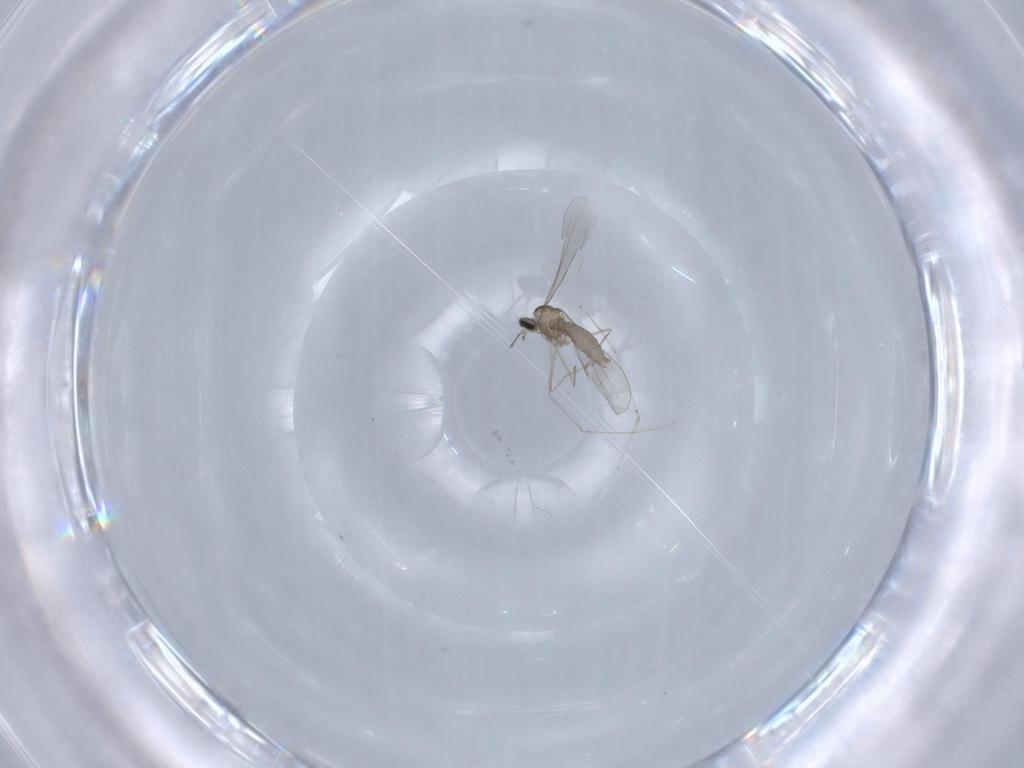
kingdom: Animalia
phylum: Arthropoda
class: Insecta
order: Diptera
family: Cecidomyiidae
